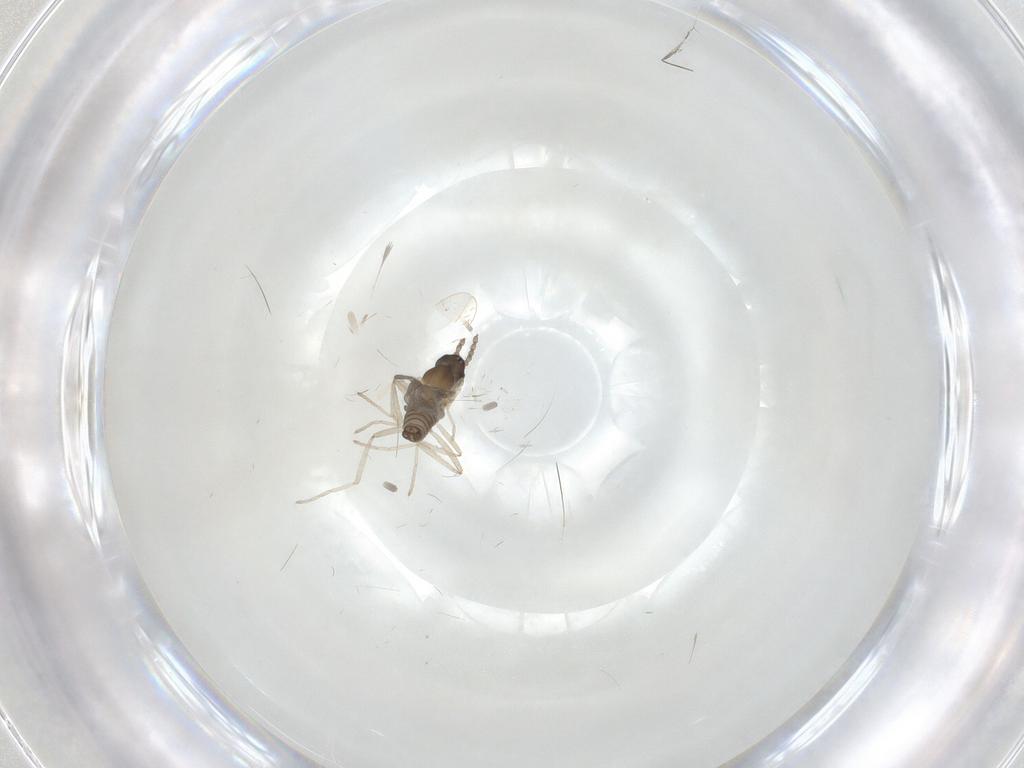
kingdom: Animalia
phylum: Arthropoda
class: Insecta
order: Diptera
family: Cecidomyiidae
